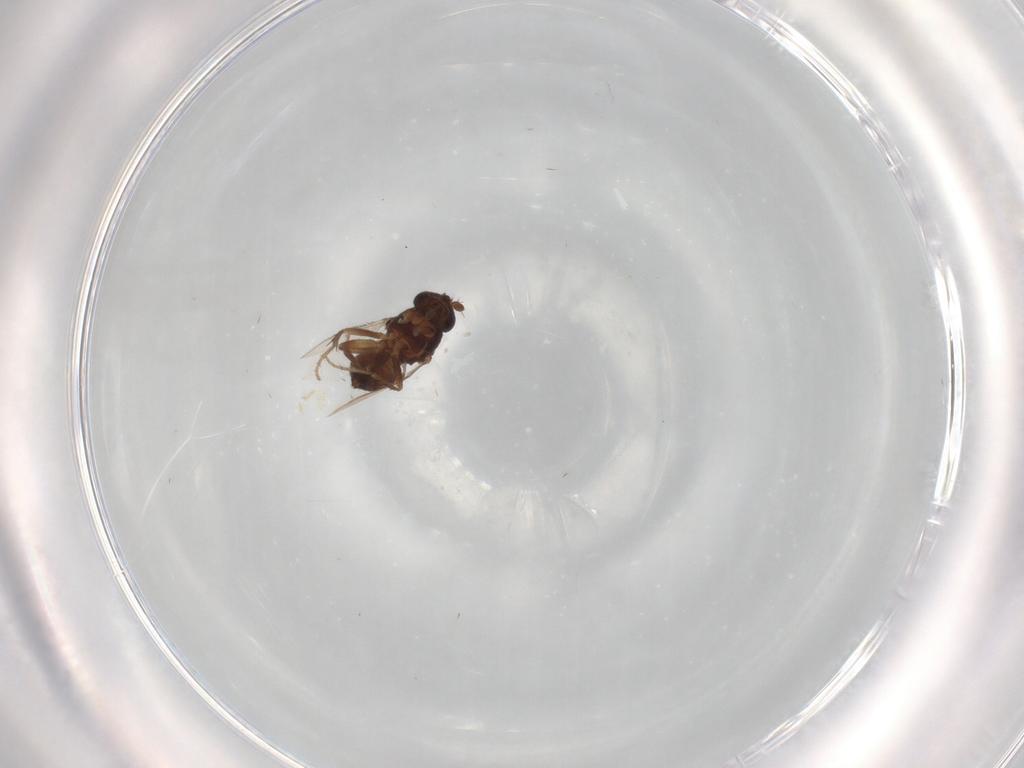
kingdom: Animalia
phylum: Arthropoda
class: Insecta
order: Diptera
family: Sphaeroceridae
